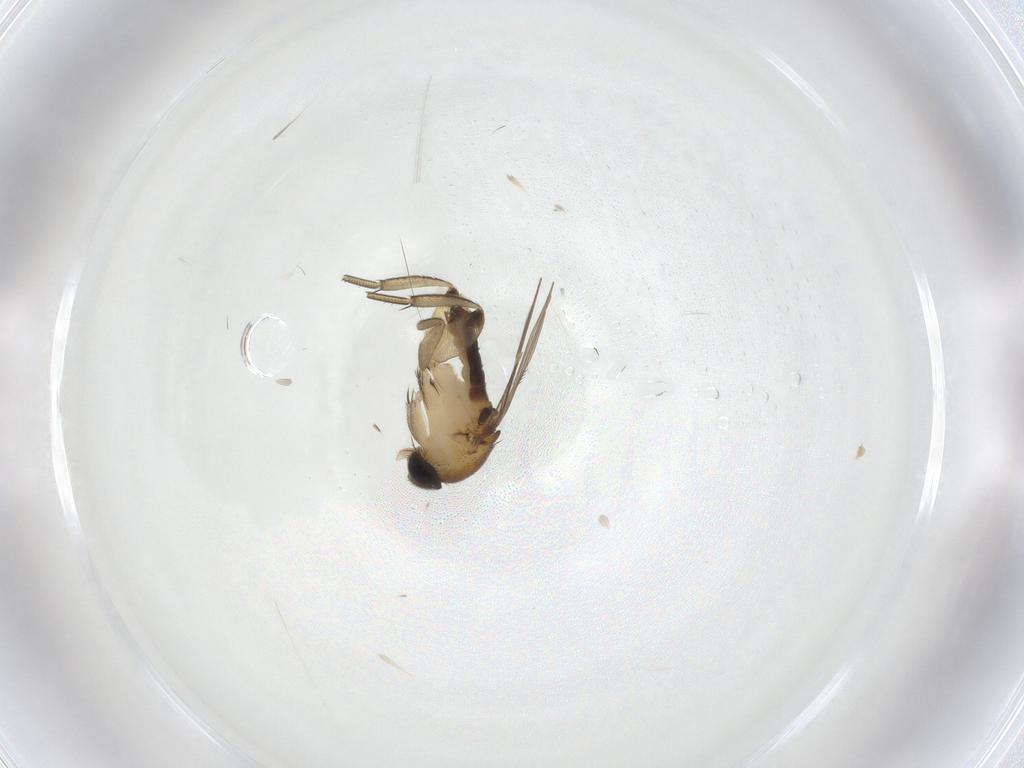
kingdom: Animalia
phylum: Arthropoda
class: Insecta
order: Diptera
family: Phoridae
